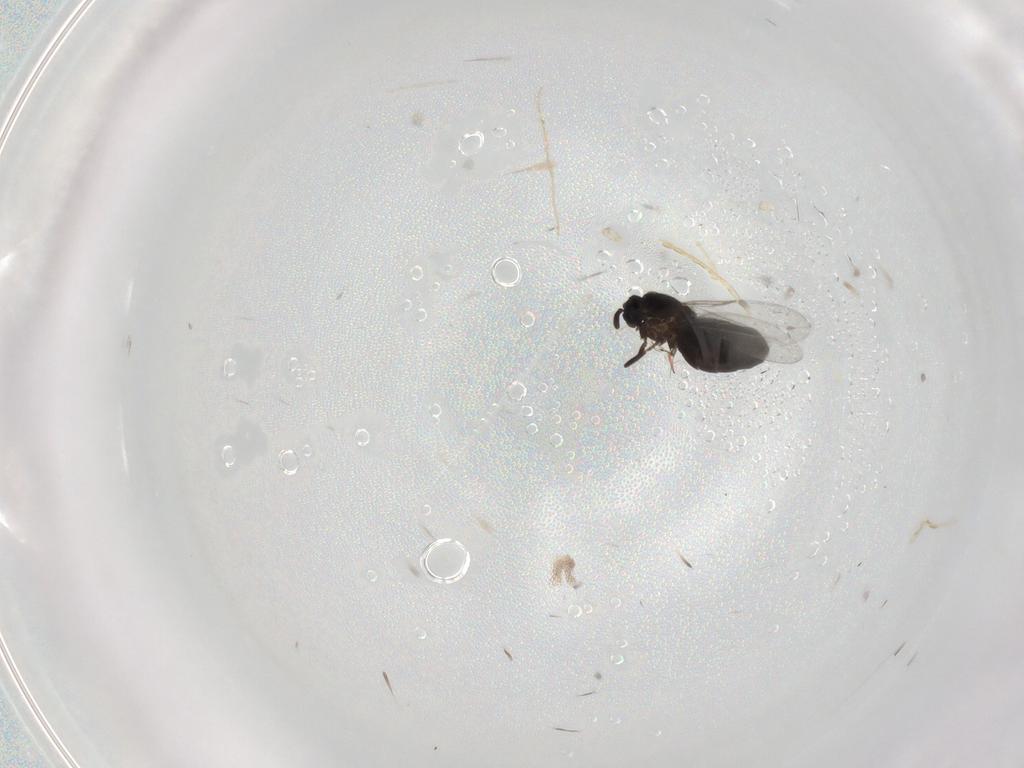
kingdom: Animalia
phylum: Arthropoda
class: Insecta
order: Diptera
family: Scatopsidae
